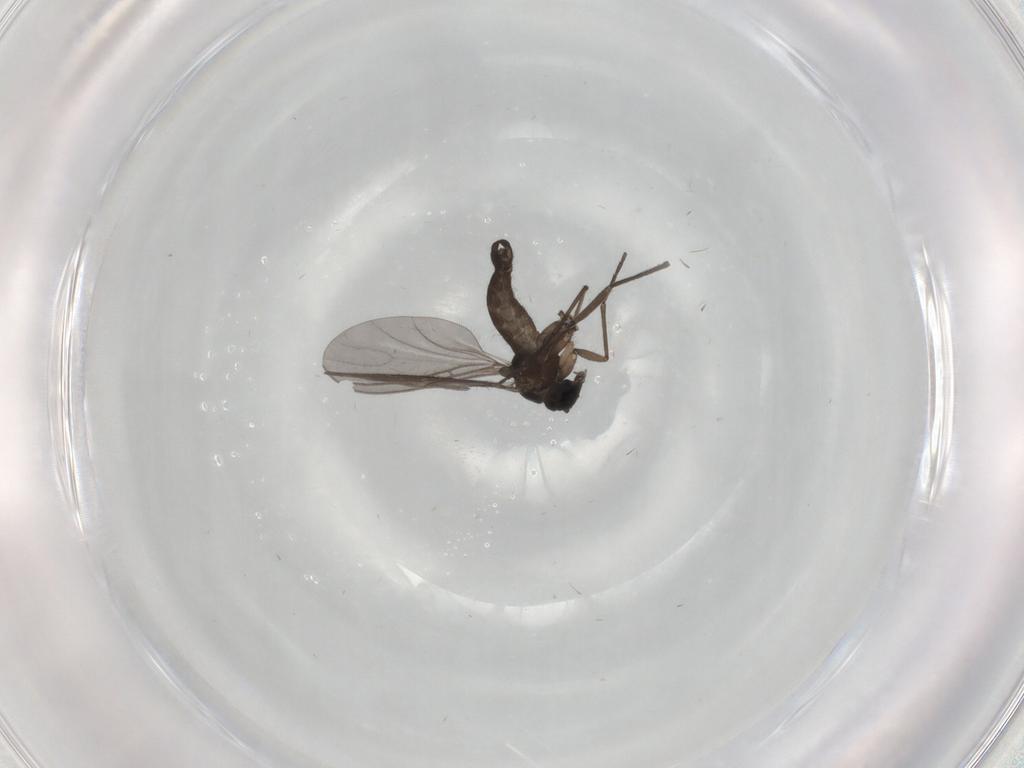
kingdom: Animalia
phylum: Arthropoda
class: Insecta
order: Diptera
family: Phoridae
